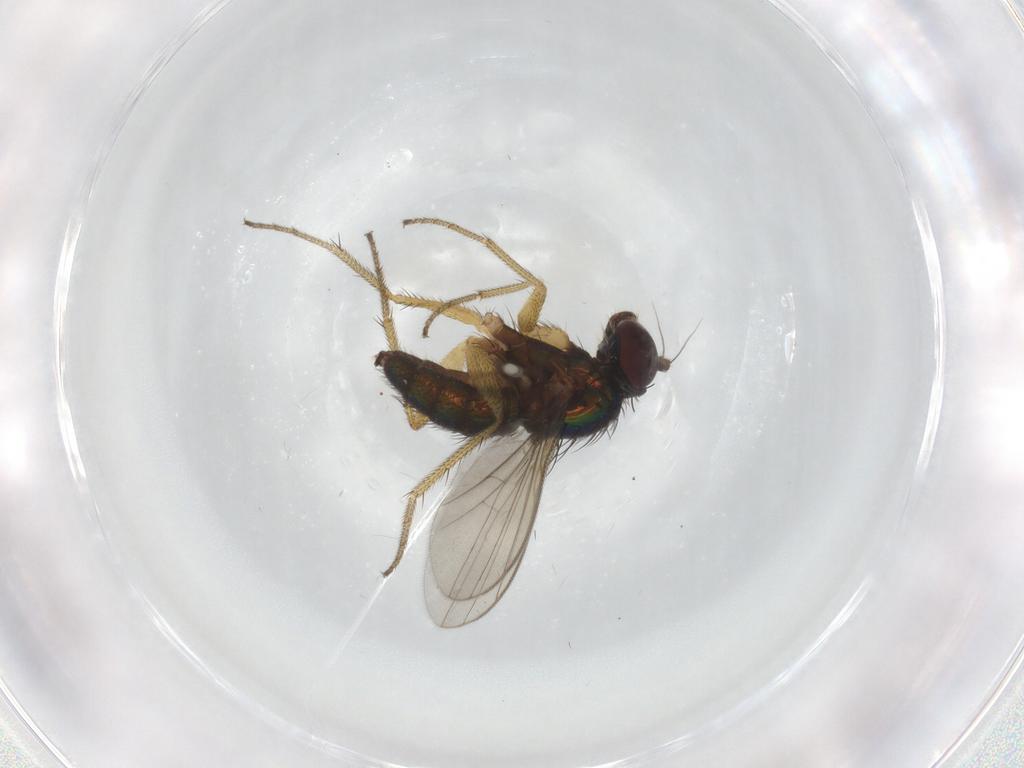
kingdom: Animalia
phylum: Arthropoda
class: Insecta
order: Diptera
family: Dolichopodidae
